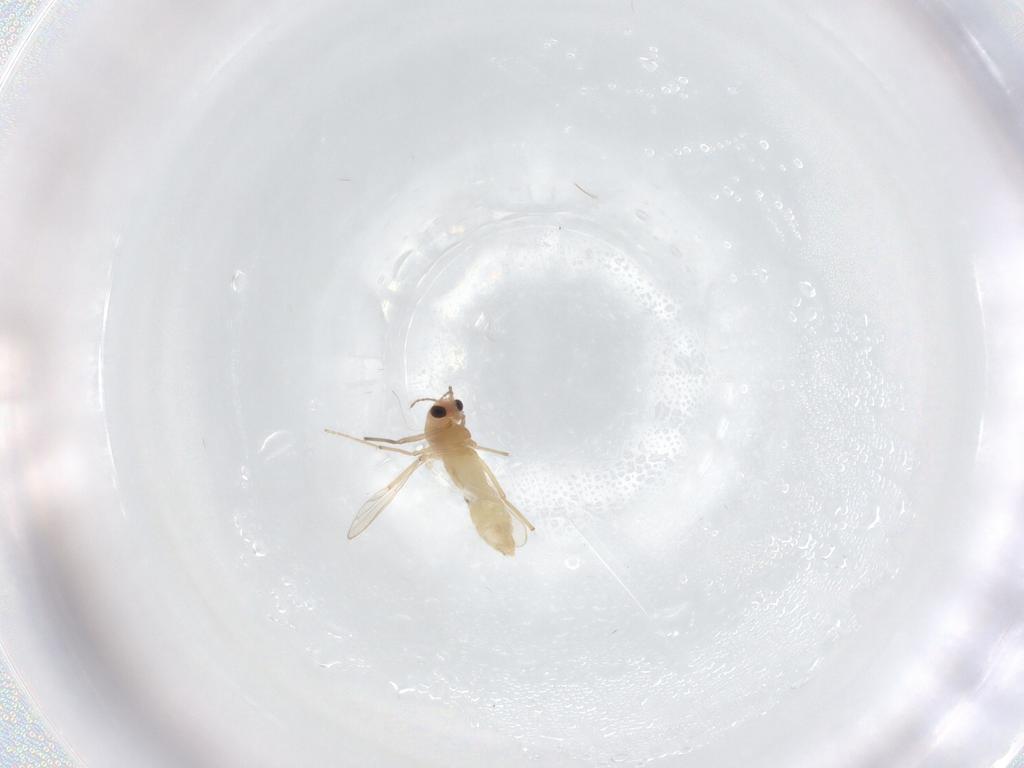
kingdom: Animalia
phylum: Arthropoda
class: Insecta
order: Diptera
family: Chironomidae
